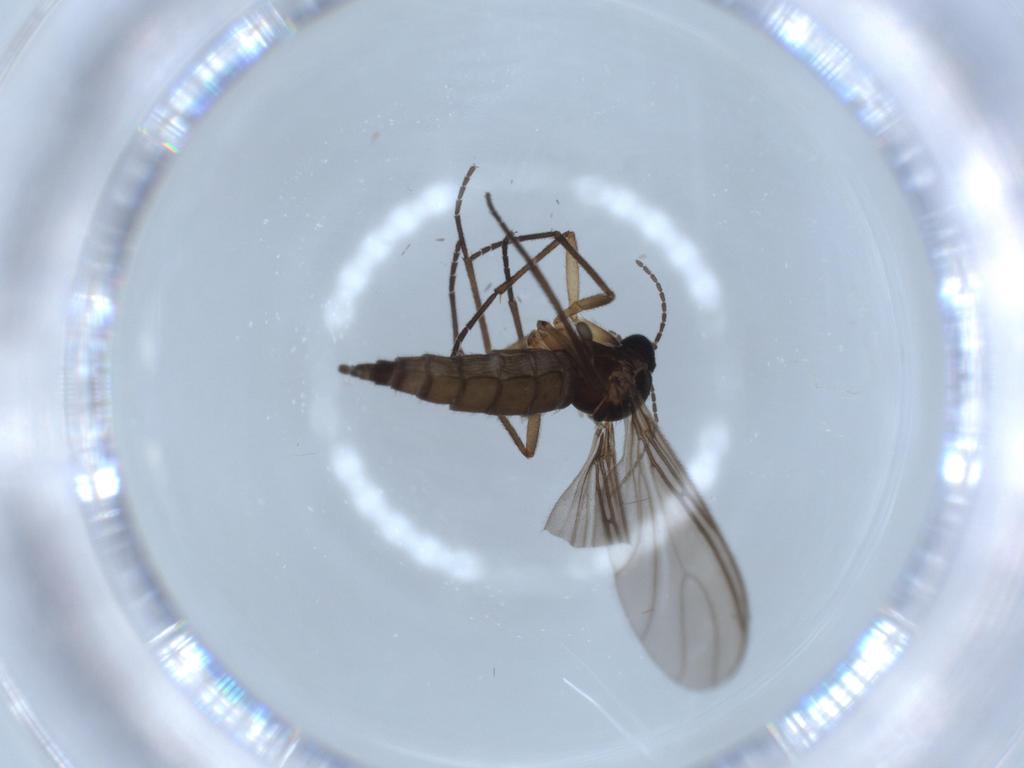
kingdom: Animalia
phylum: Arthropoda
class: Insecta
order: Diptera
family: Sciaridae
